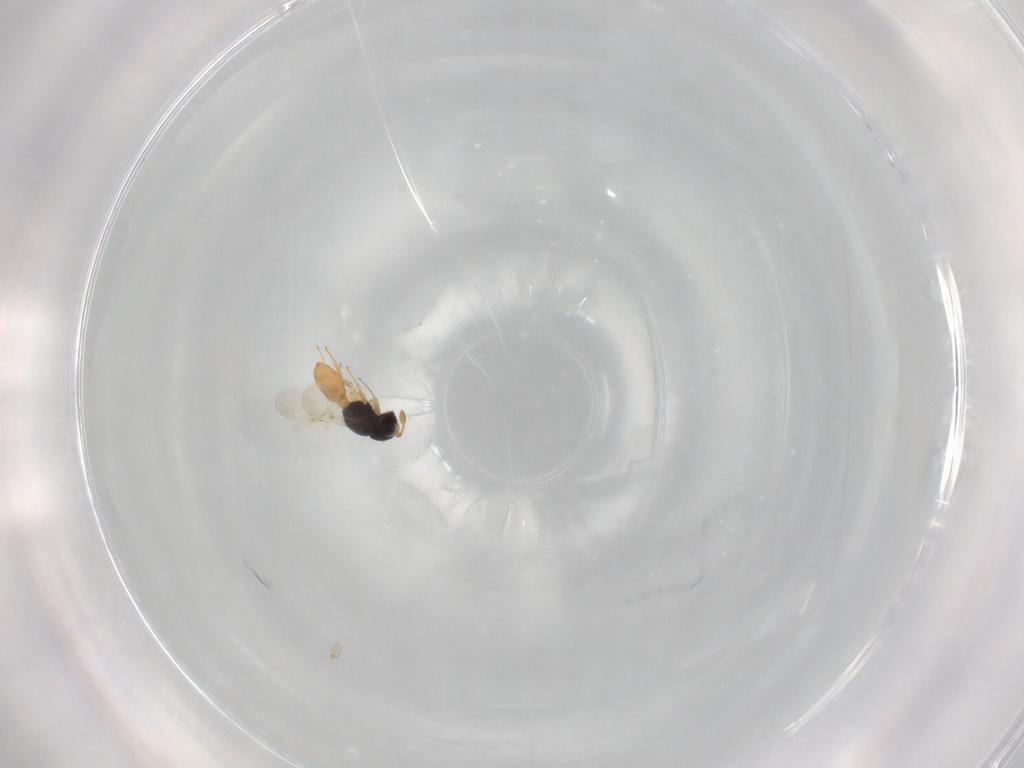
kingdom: Animalia
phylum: Arthropoda
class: Insecta
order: Hymenoptera
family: Scelionidae
